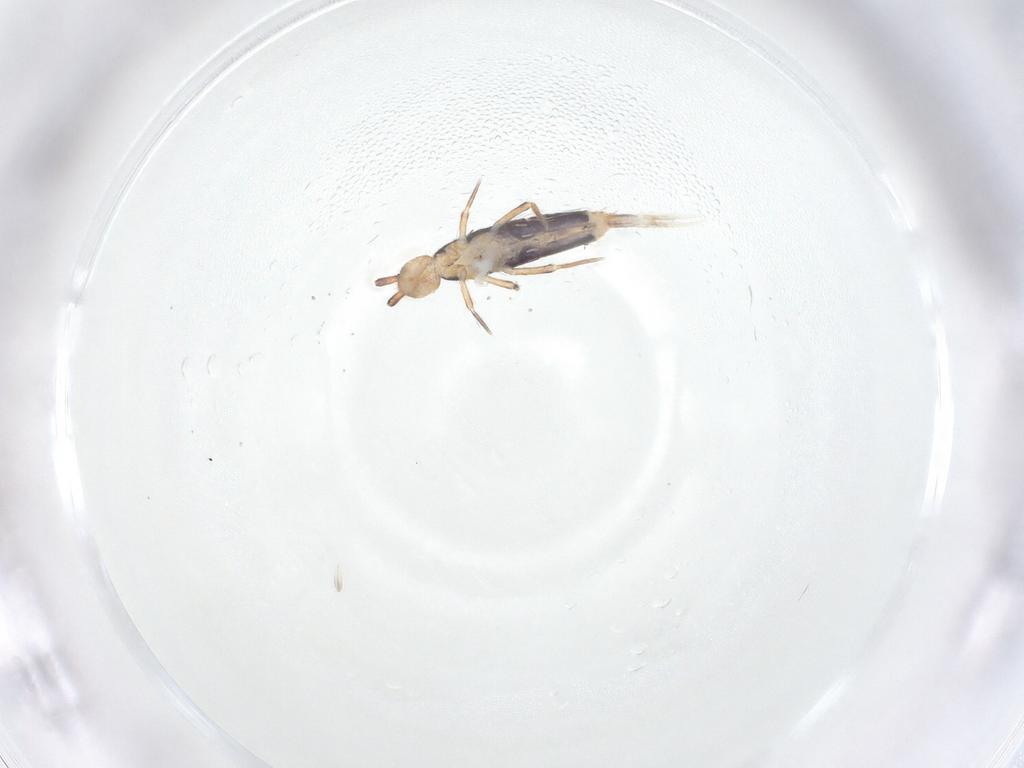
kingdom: Animalia
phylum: Arthropoda
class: Collembola
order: Entomobryomorpha
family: Entomobryidae
